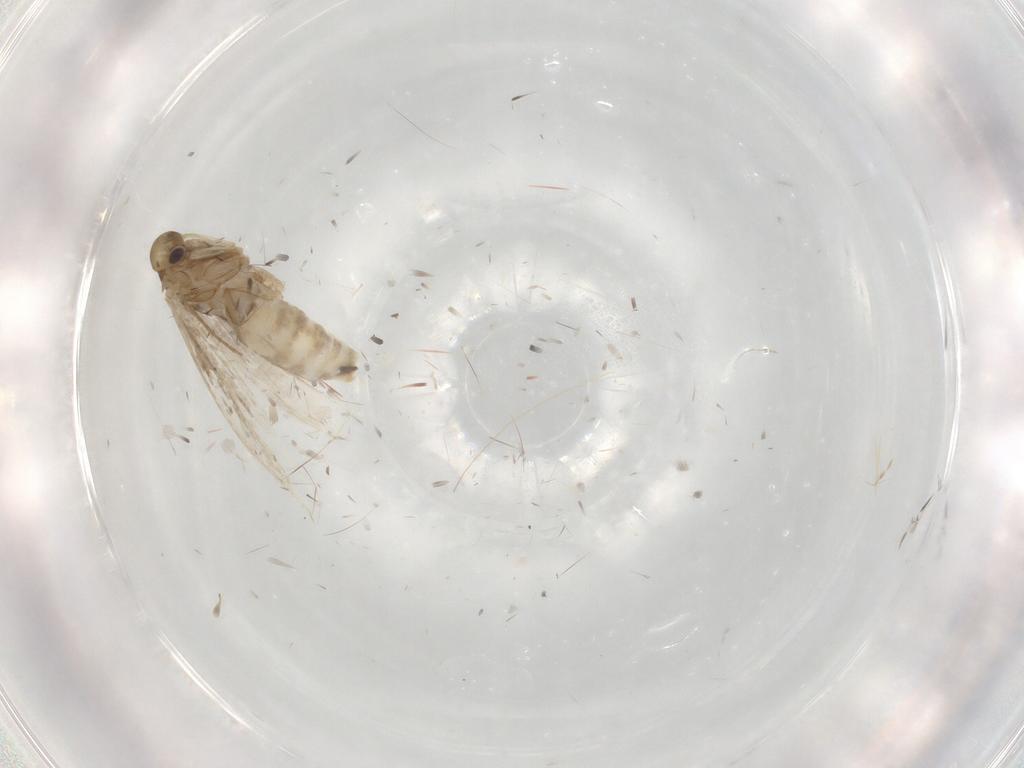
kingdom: Animalia
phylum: Arthropoda
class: Insecta
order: Lepidoptera
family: Gracillariidae
